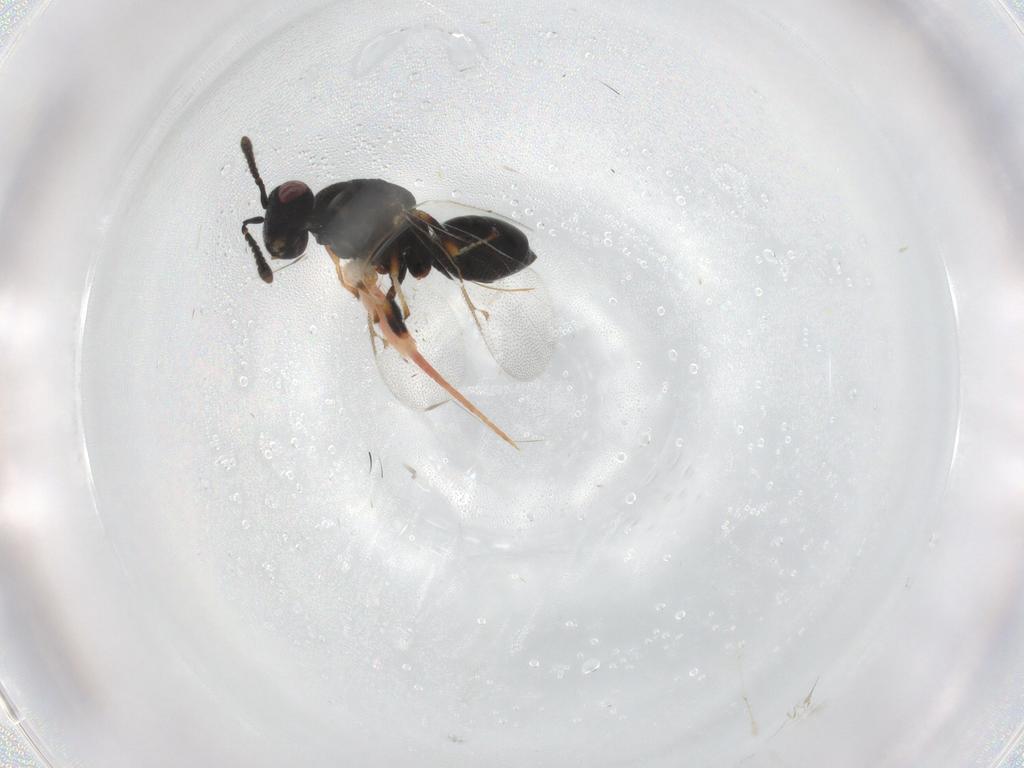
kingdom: Animalia
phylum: Arthropoda
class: Insecta
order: Hymenoptera
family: Eurytomidae
